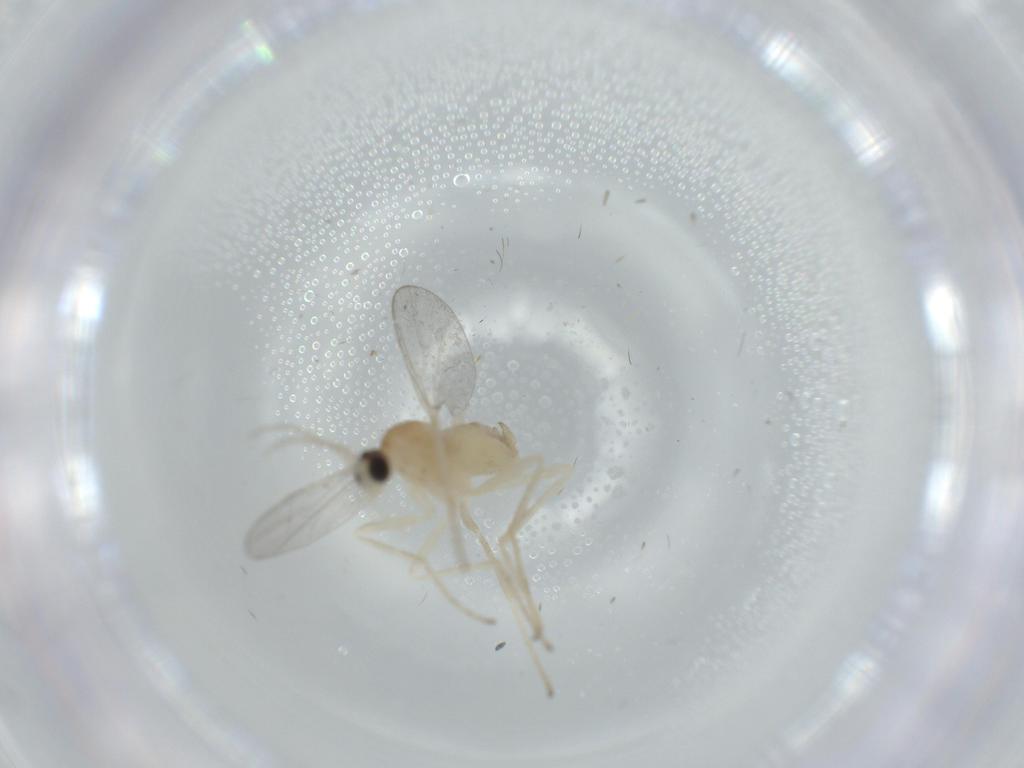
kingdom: Animalia
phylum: Arthropoda
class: Insecta
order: Diptera
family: Cecidomyiidae
